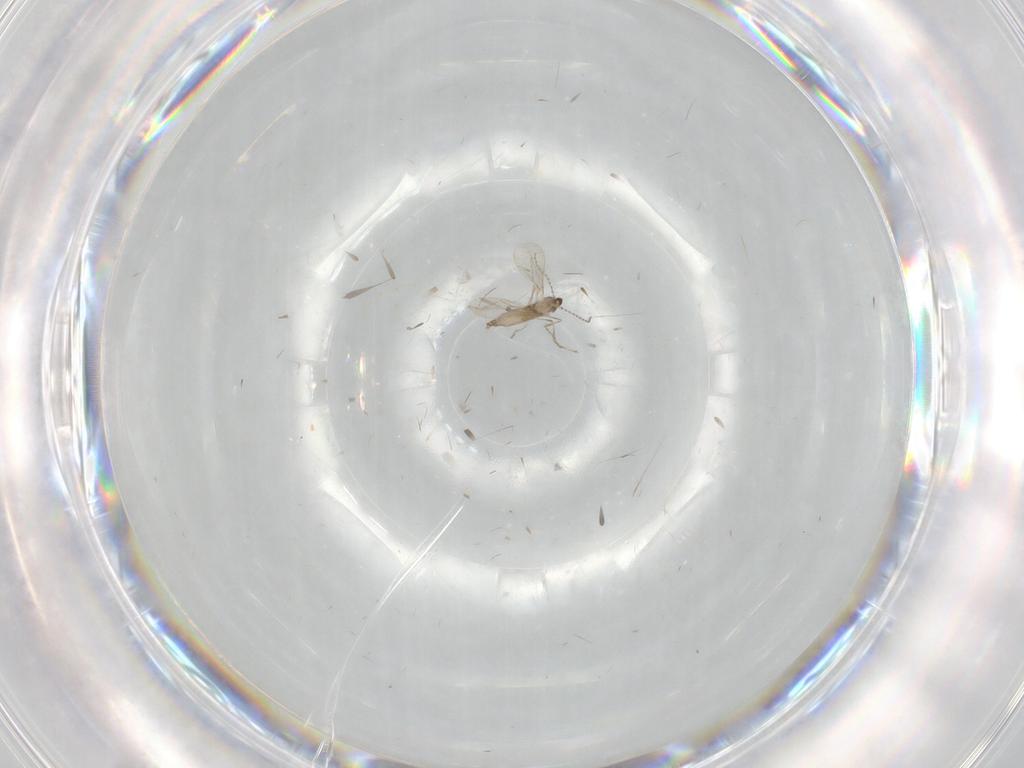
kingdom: Animalia
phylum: Arthropoda
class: Insecta
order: Diptera
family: Cecidomyiidae
